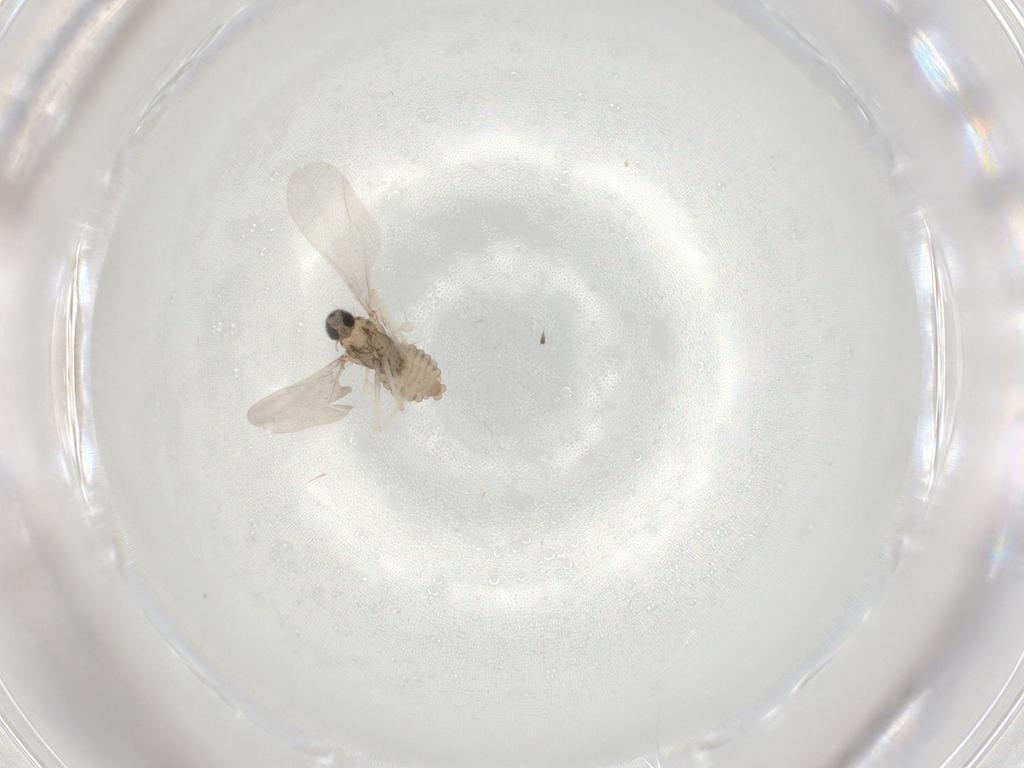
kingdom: Animalia
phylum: Arthropoda
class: Insecta
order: Diptera
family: Cecidomyiidae
